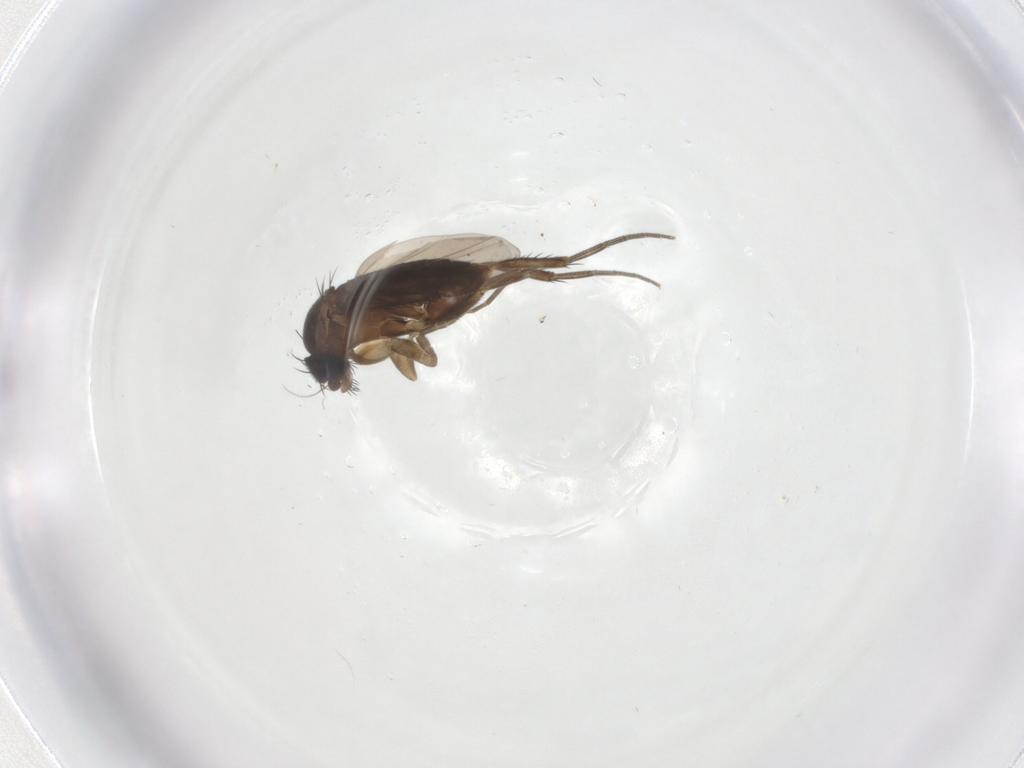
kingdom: Animalia
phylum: Arthropoda
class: Insecta
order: Diptera
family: Phoridae
